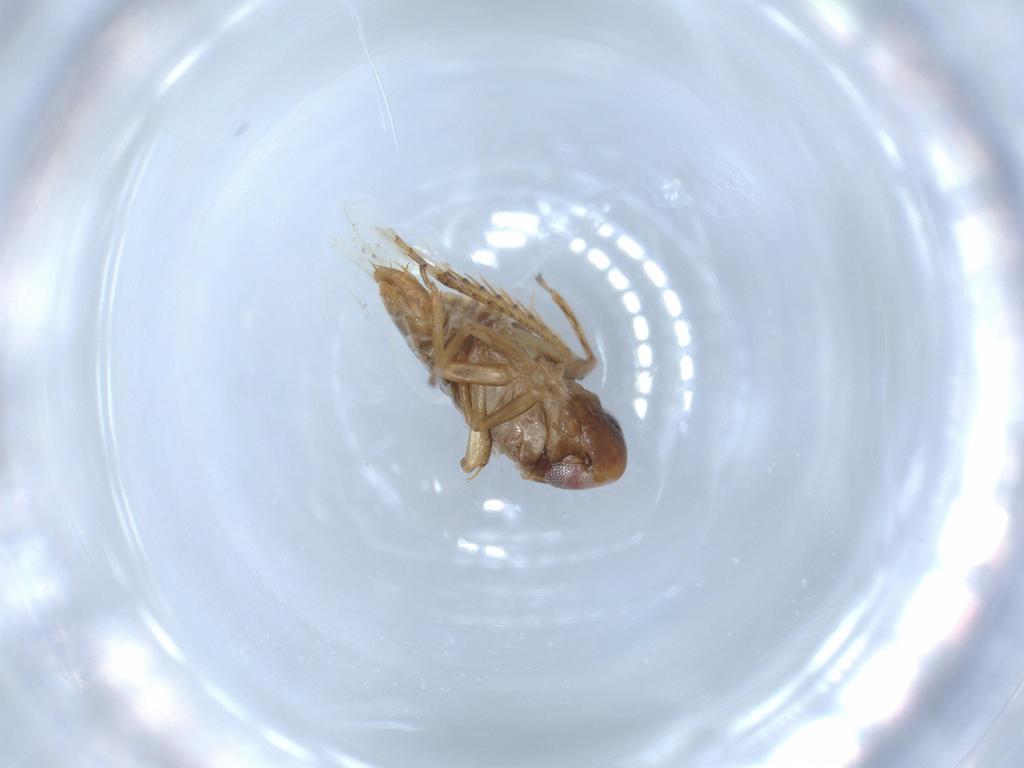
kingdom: Animalia
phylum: Arthropoda
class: Insecta
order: Hemiptera
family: Cicadellidae
